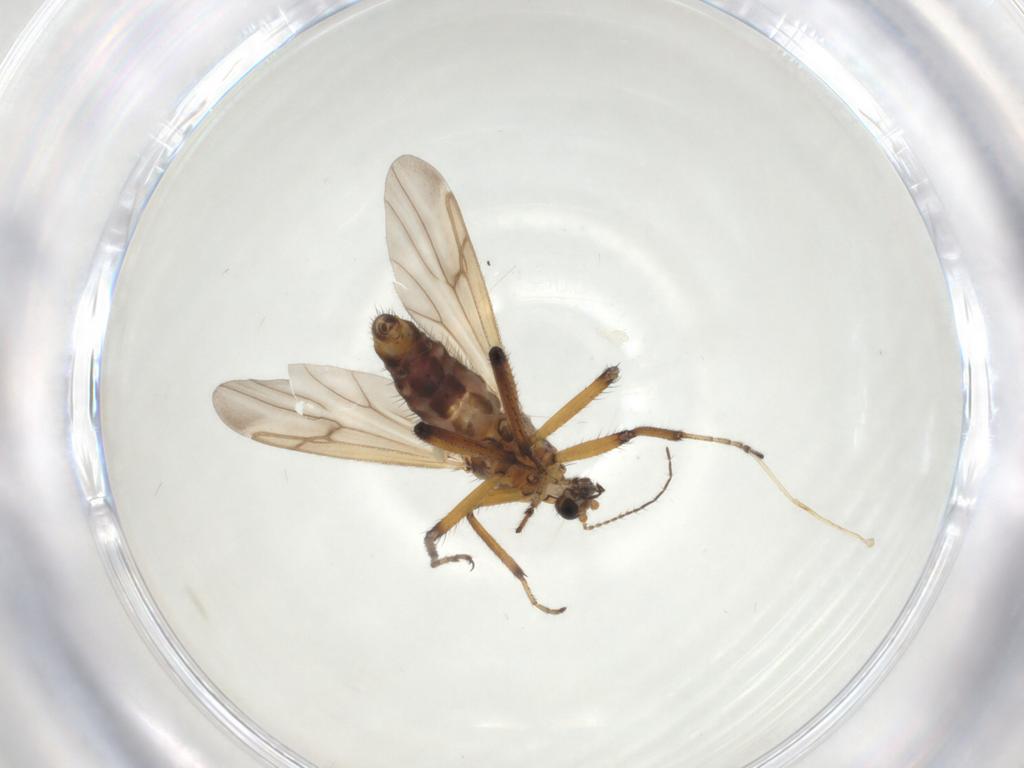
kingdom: Animalia
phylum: Arthropoda
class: Insecta
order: Diptera
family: Ceratopogonidae
